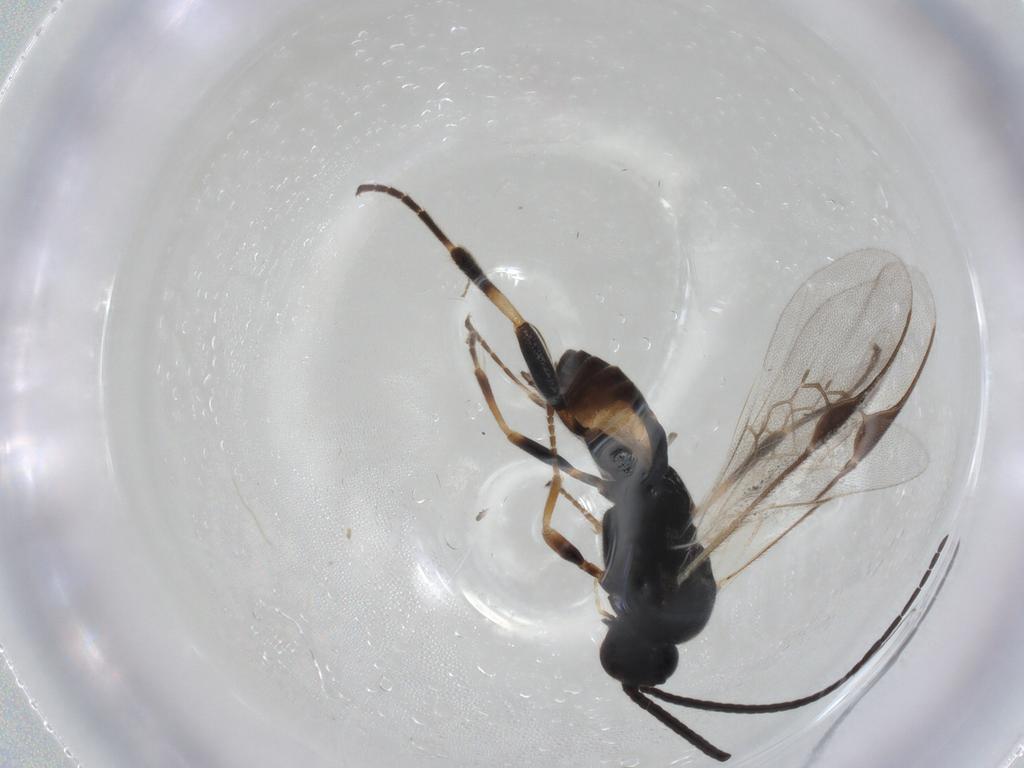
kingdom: Animalia
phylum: Arthropoda
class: Insecta
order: Hymenoptera
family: Braconidae
